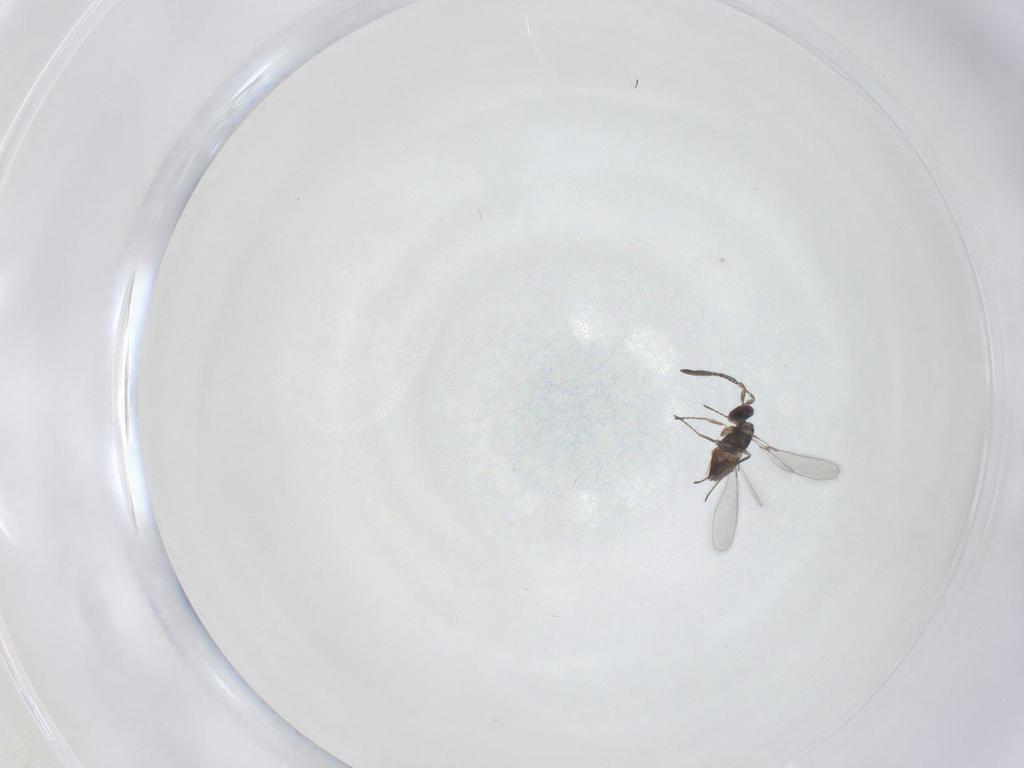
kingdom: Animalia
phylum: Arthropoda
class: Insecta
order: Hymenoptera
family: Mymaridae
